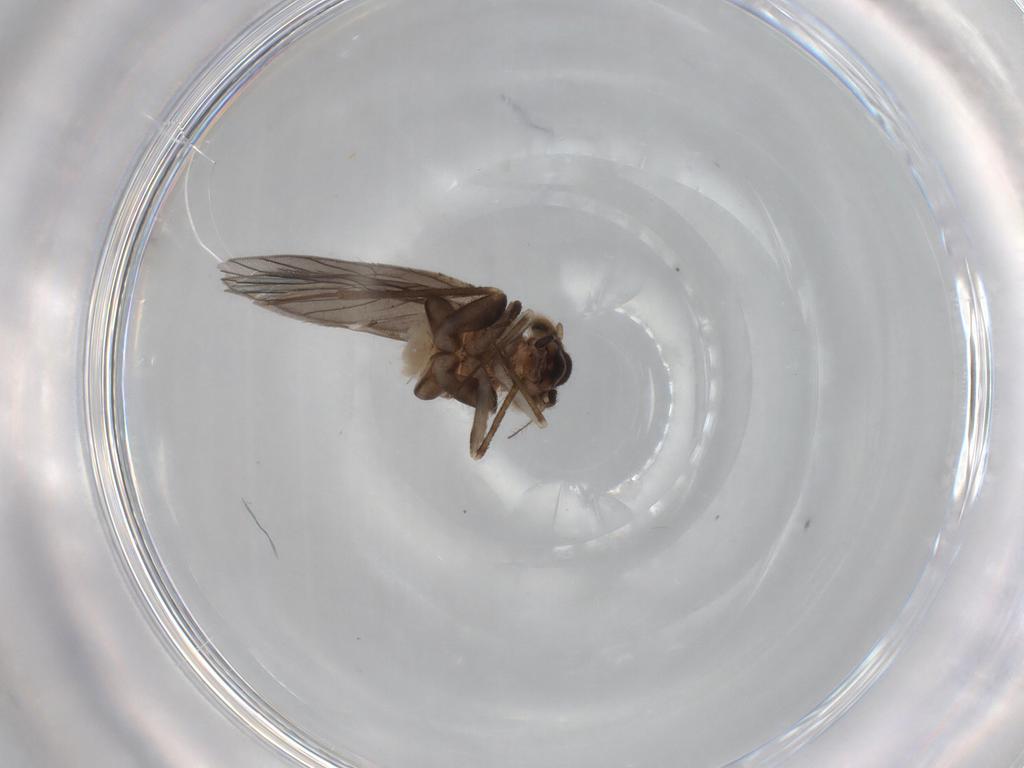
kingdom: Animalia
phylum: Arthropoda
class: Insecta
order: Psocodea
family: Lepidopsocidae
